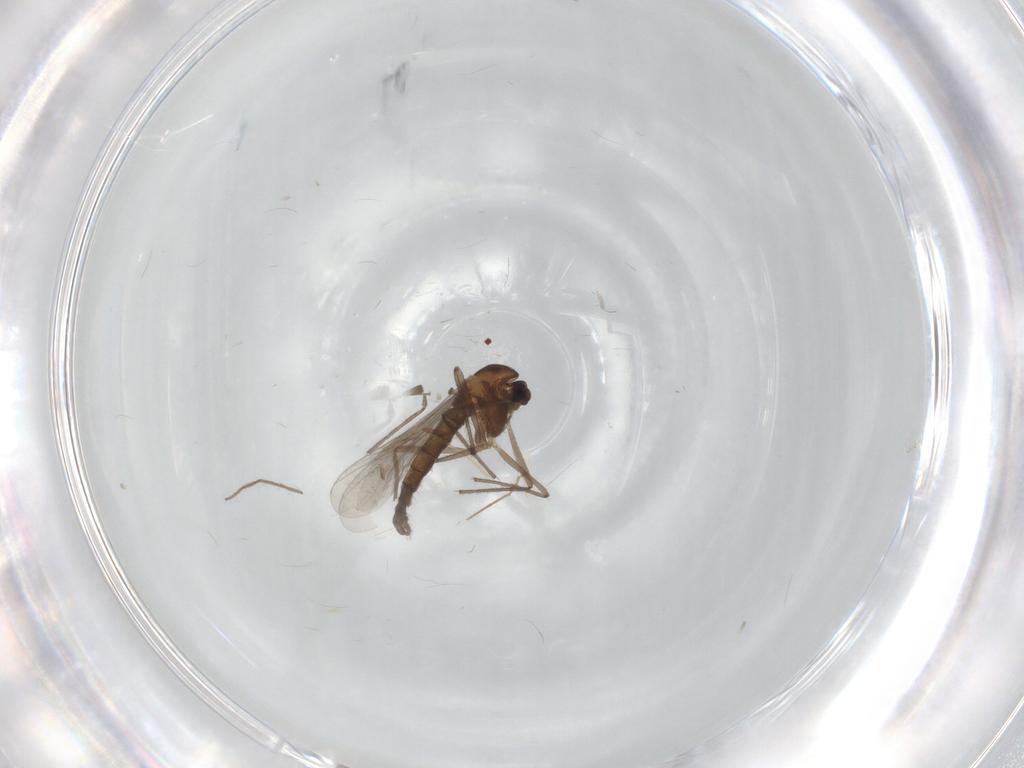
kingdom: Animalia
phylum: Arthropoda
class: Insecta
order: Diptera
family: Chironomidae
